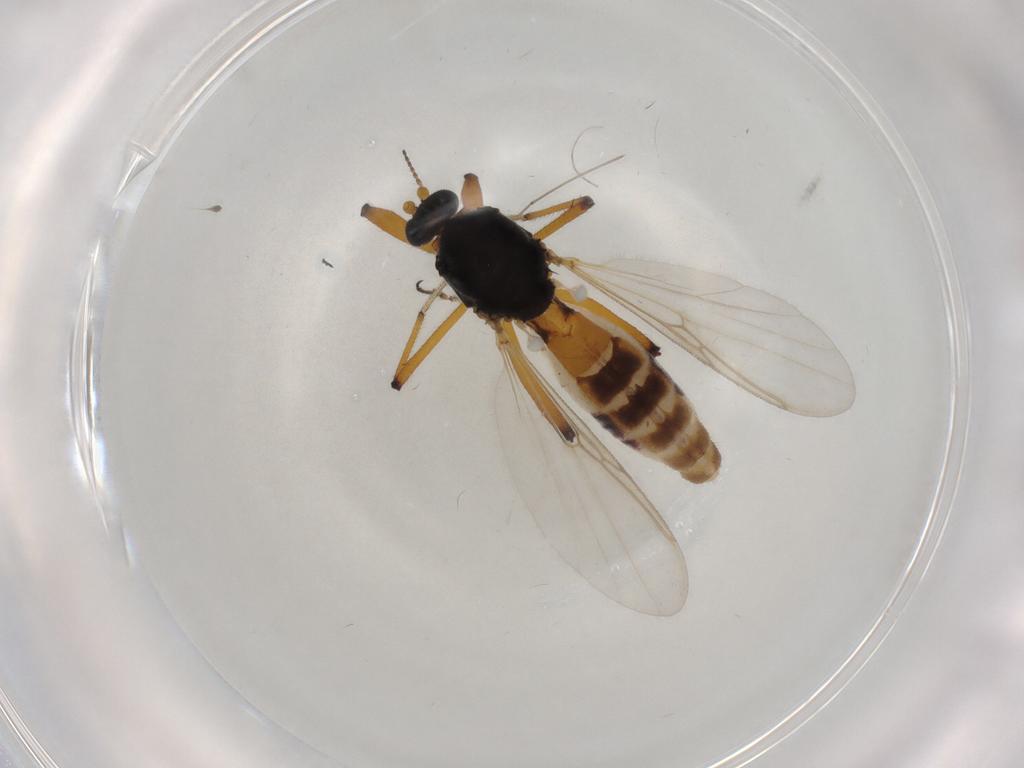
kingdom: Animalia
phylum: Arthropoda
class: Insecta
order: Diptera
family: Ceratopogonidae
